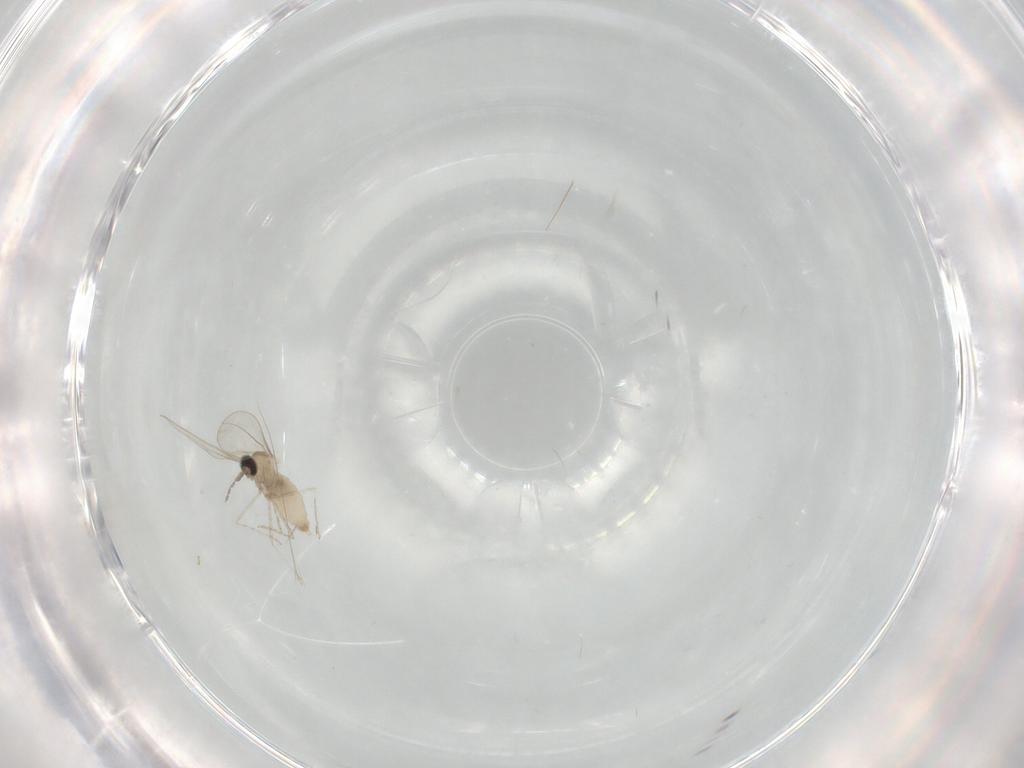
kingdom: Animalia
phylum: Arthropoda
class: Insecta
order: Diptera
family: Cecidomyiidae
